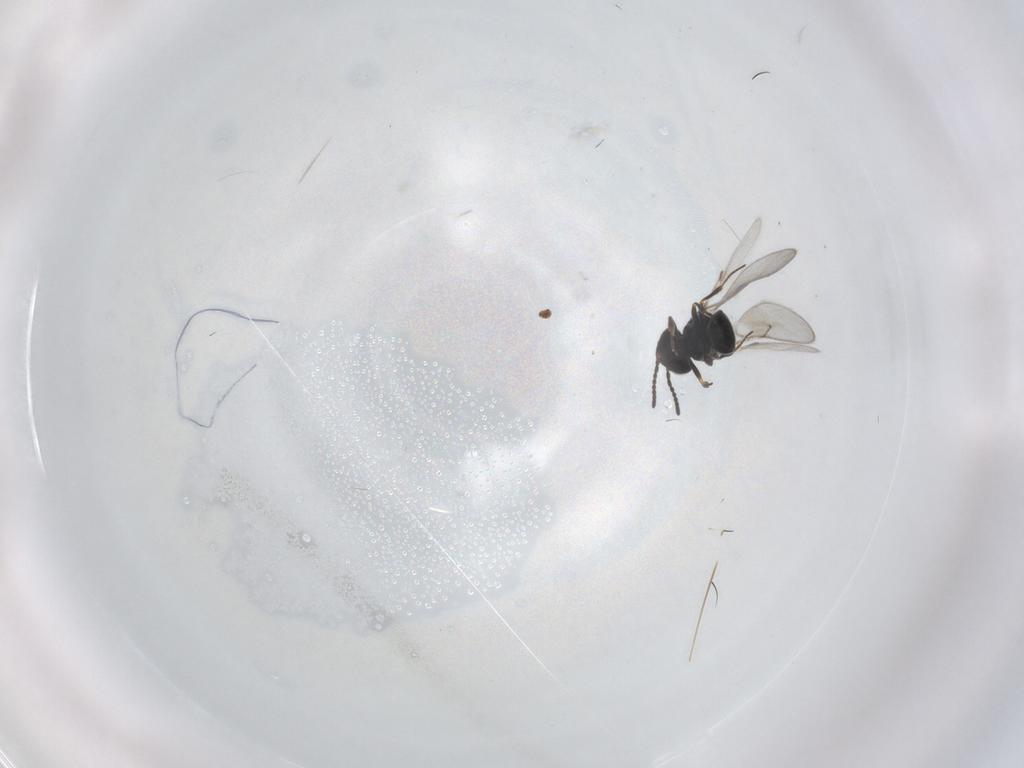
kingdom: Animalia
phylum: Arthropoda
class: Insecta
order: Hymenoptera
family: Scelionidae
